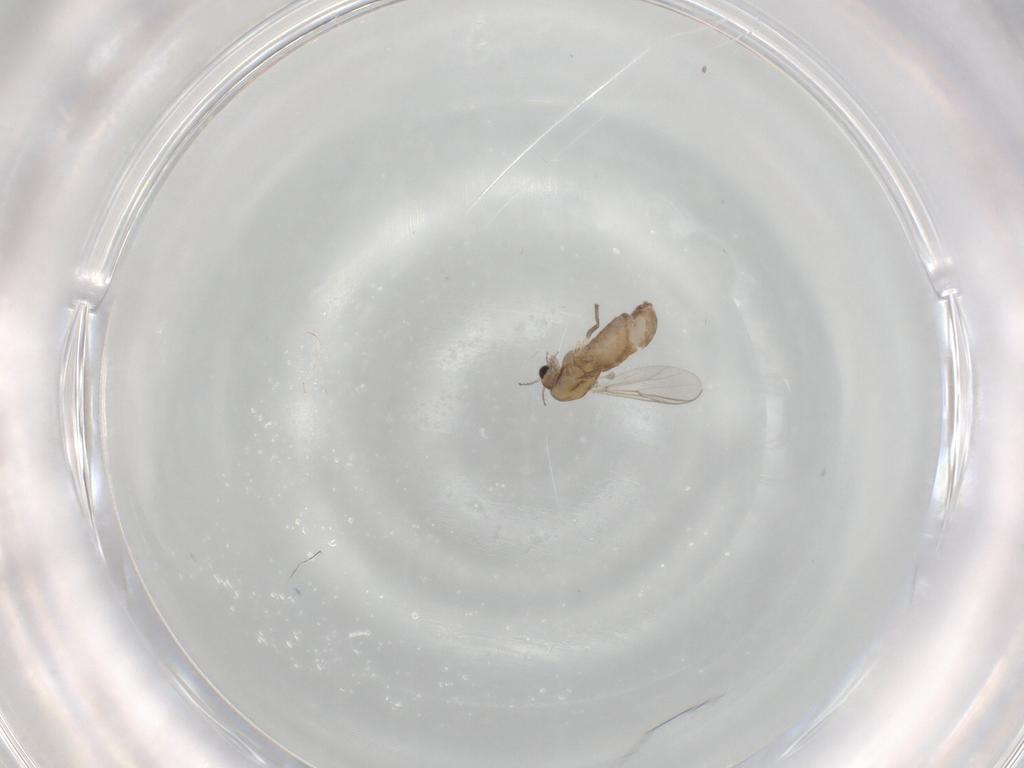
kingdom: Animalia
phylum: Arthropoda
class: Insecta
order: Diptera
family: Chironomidae
